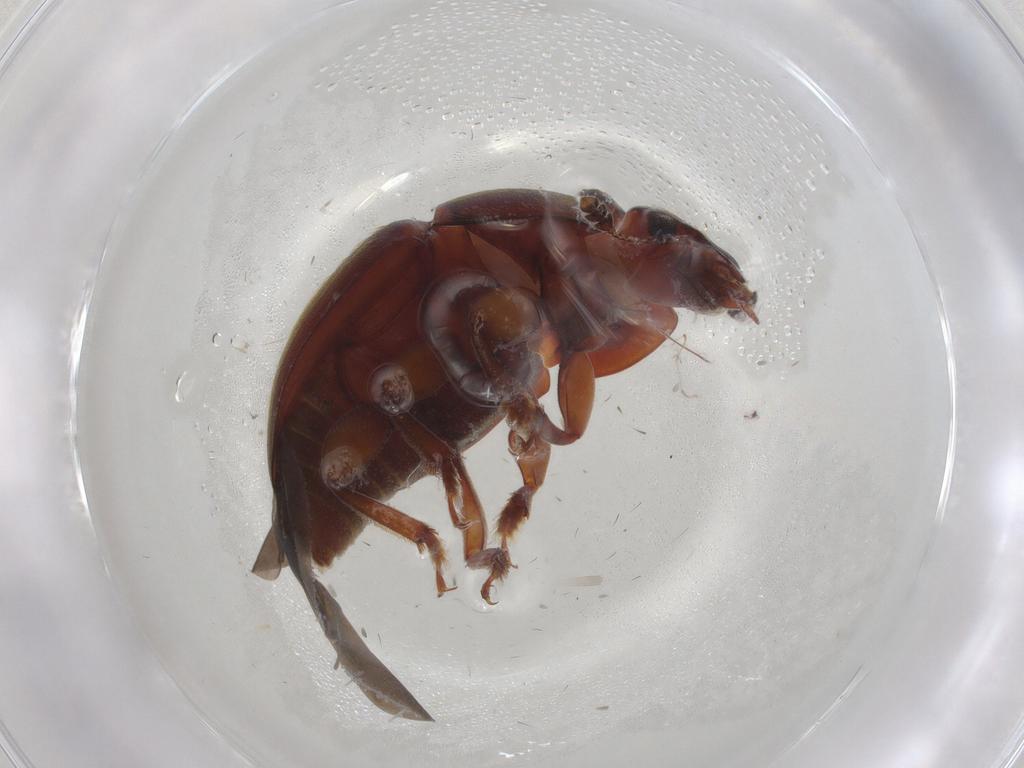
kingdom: Animalia
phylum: Arthropoda
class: Insecta
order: Coleoptera
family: Nitidulidae
